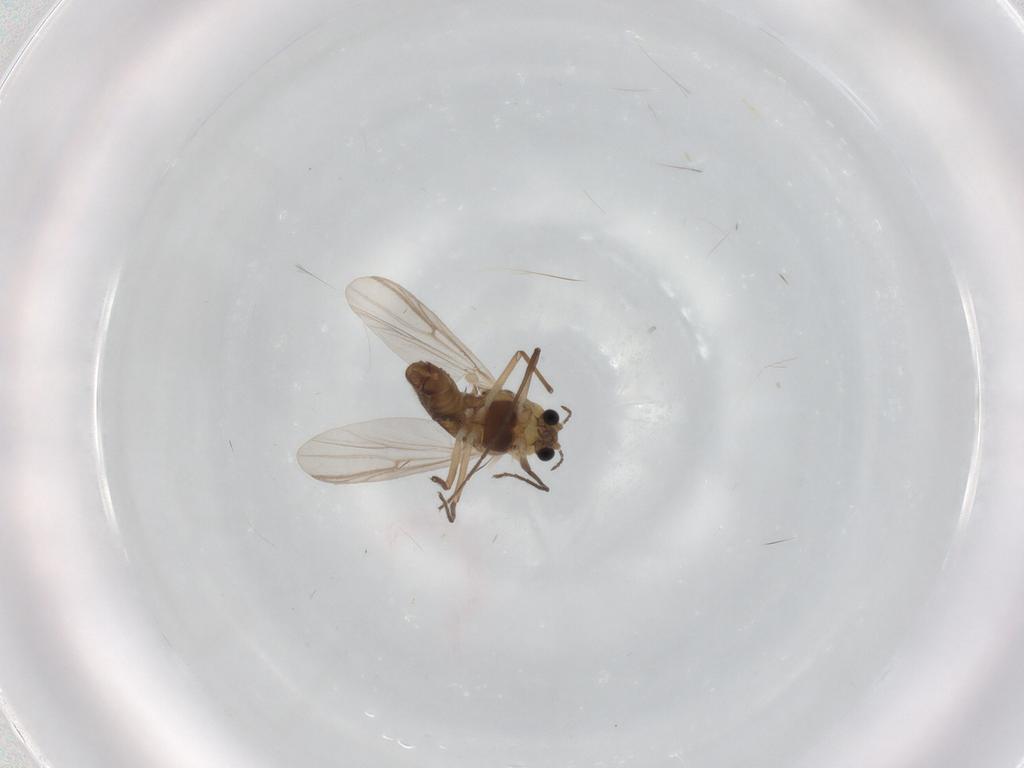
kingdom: Animalia
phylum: Arthropoda
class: Insecta
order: Diptera
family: Chironomidae
